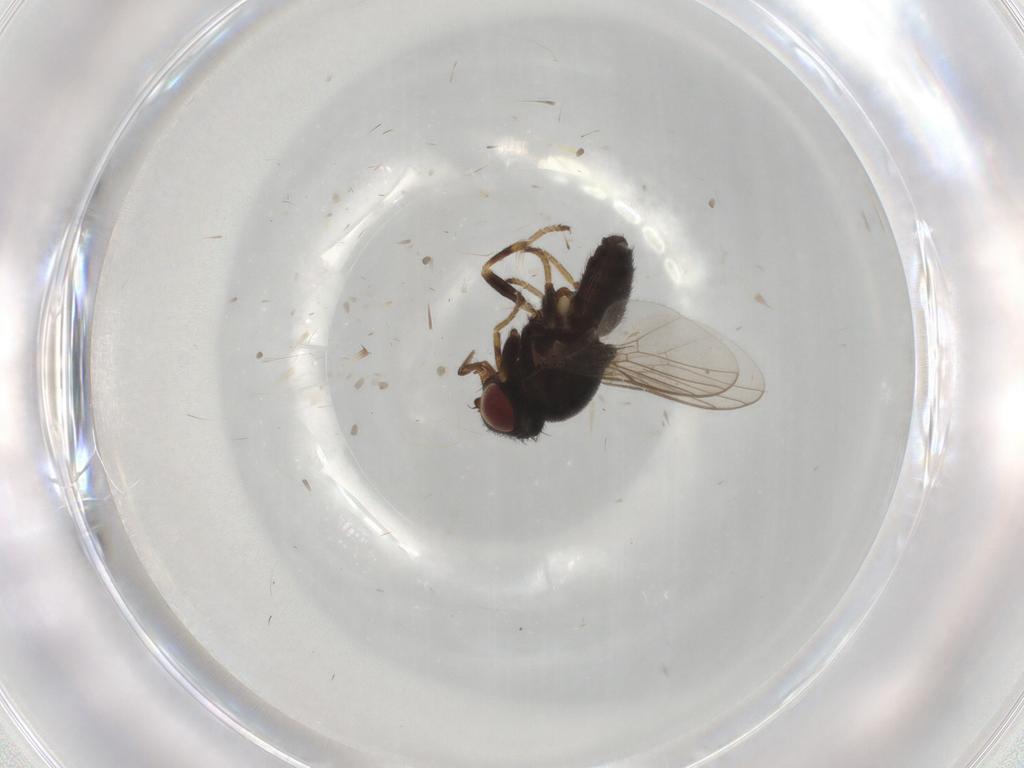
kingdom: Animalia
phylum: Arthropoda
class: Insecta
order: Diptera
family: Chloropidae
